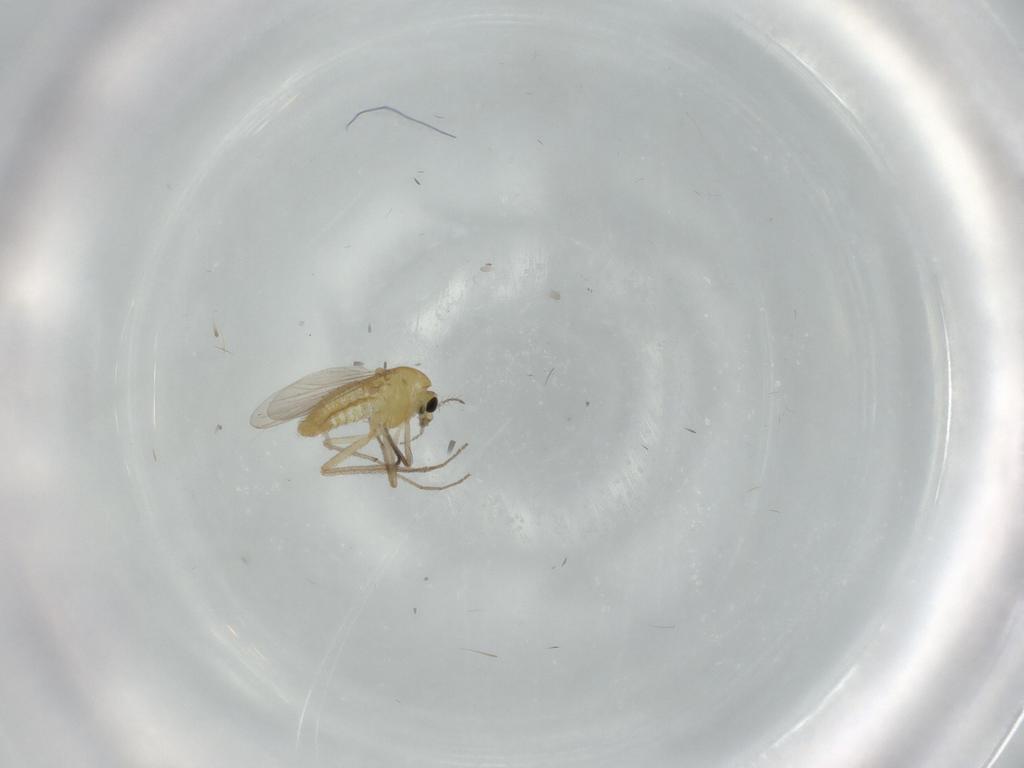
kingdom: Animalia
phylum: Arthropoda
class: Insecta
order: Diptera
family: Chironomidae
